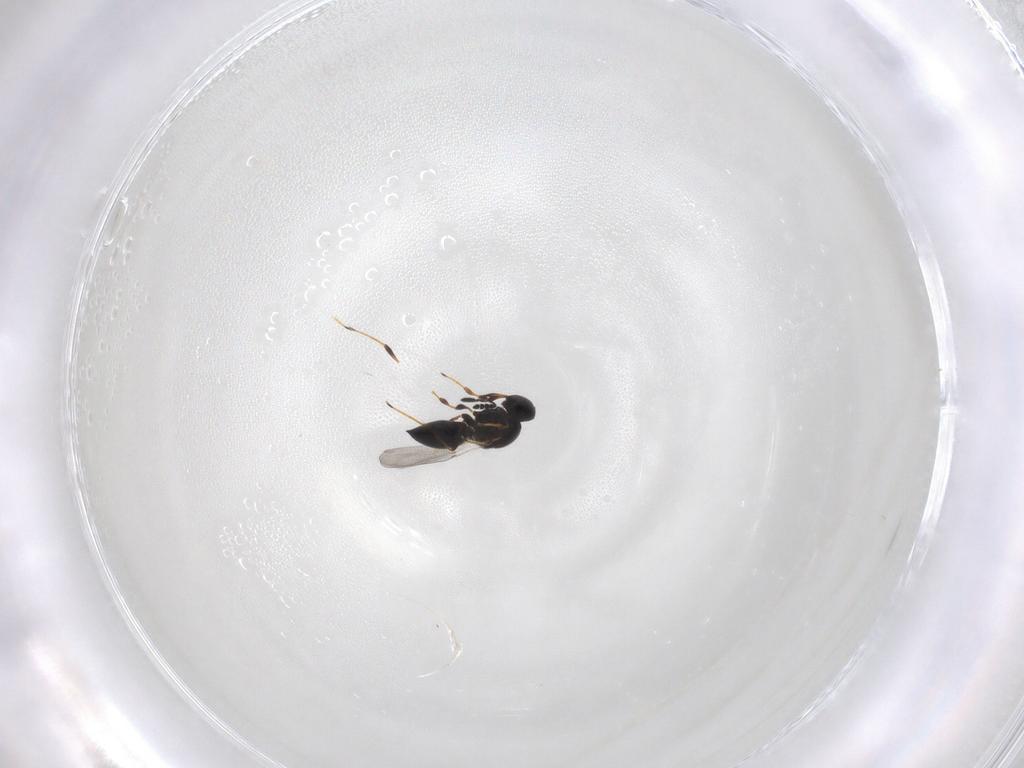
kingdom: Animalia
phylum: Arthropoda
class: Insecta
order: Hymenoptera
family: Platygastridae
